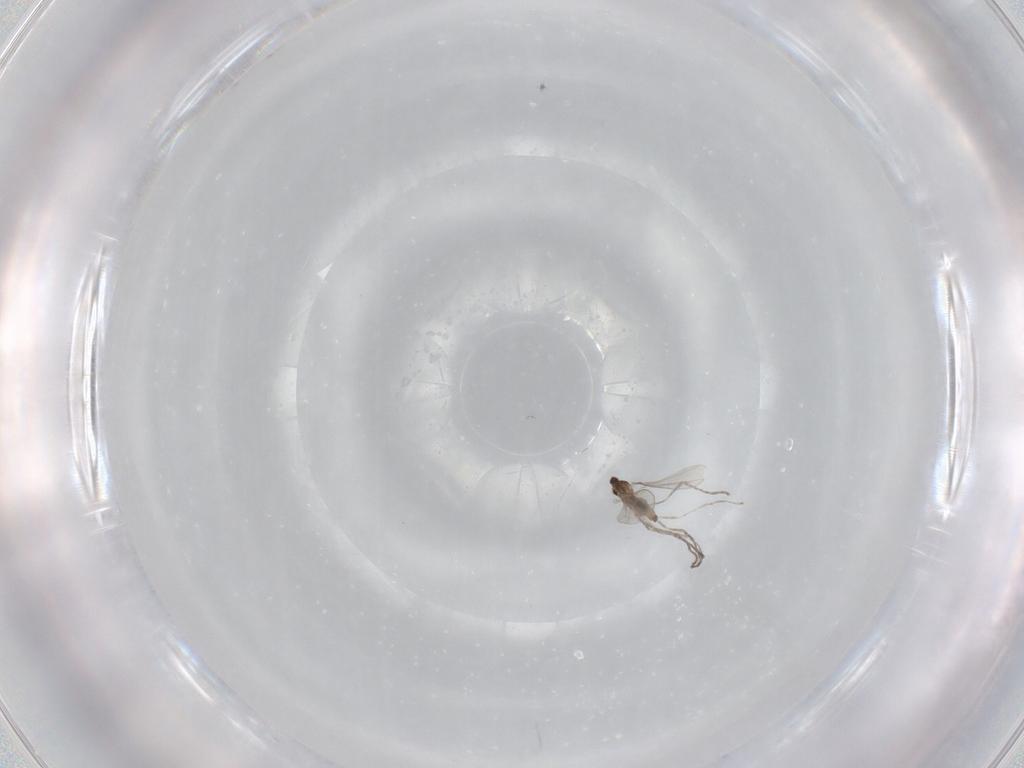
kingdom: Animalia
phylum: Arthropoda
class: Insecta
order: Diptera
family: Cecidomyiidae
